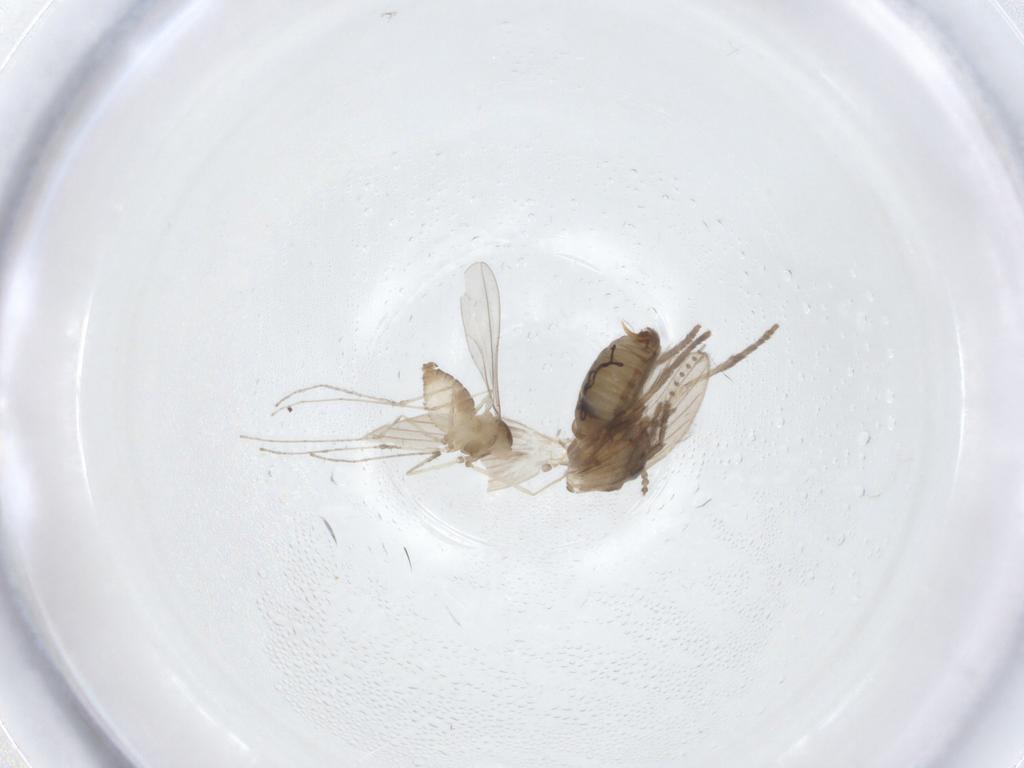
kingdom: Animalia
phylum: Arthropoda
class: Insecta
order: Diptera
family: Psychodidae
